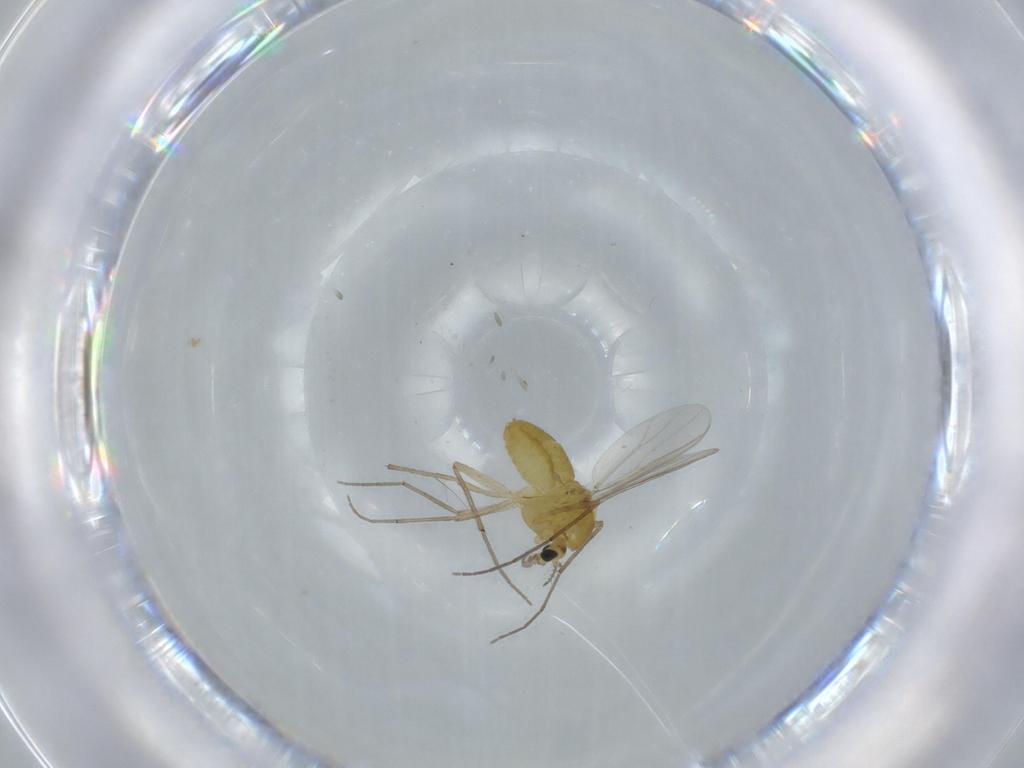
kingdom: Animalia
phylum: Arthropoda
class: Insecta
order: Diptera
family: Chironomidae
